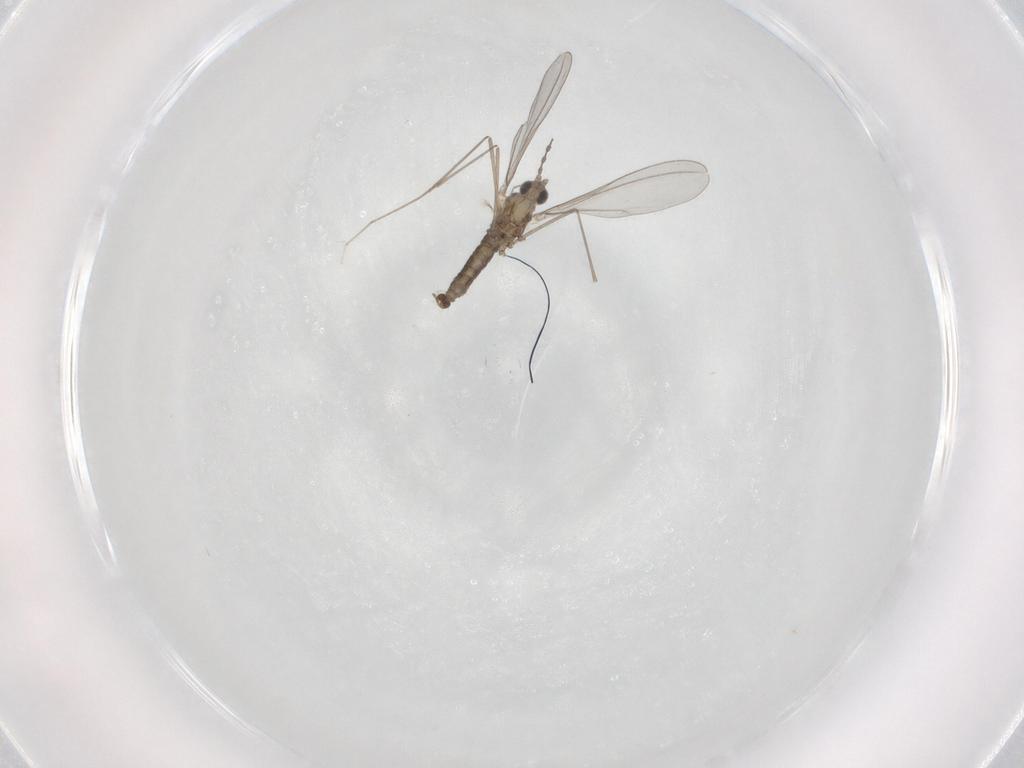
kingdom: Animalia
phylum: Arthropoda
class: Insecta
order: Diptera
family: Cecidomyiidae
